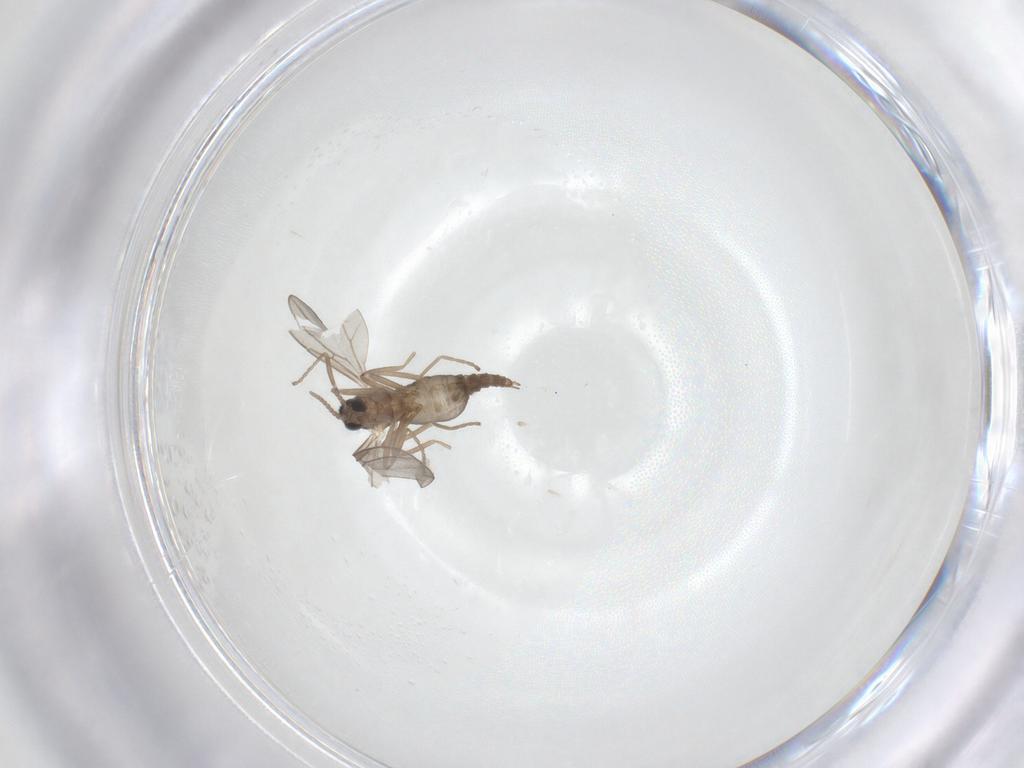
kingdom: Animalia
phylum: Arthropoda
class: Insecta
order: Diptera
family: Cecidomyiidae
